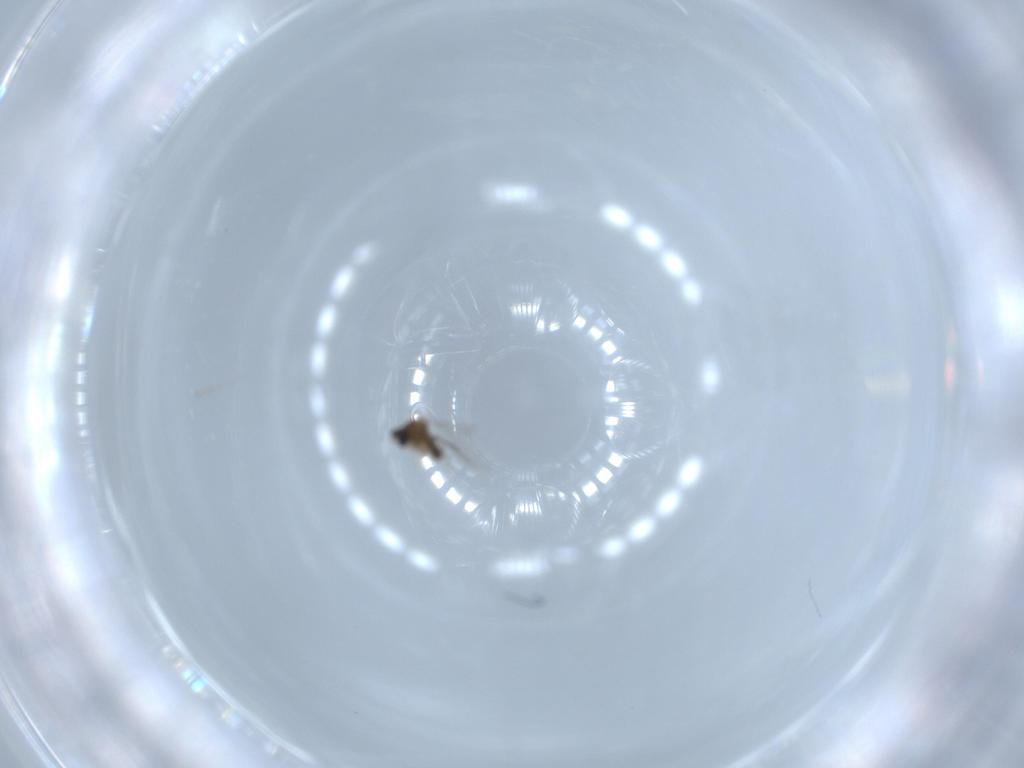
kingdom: Animalia
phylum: Arthropoda
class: Insecta
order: Diptera
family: Cecidomyiidae
